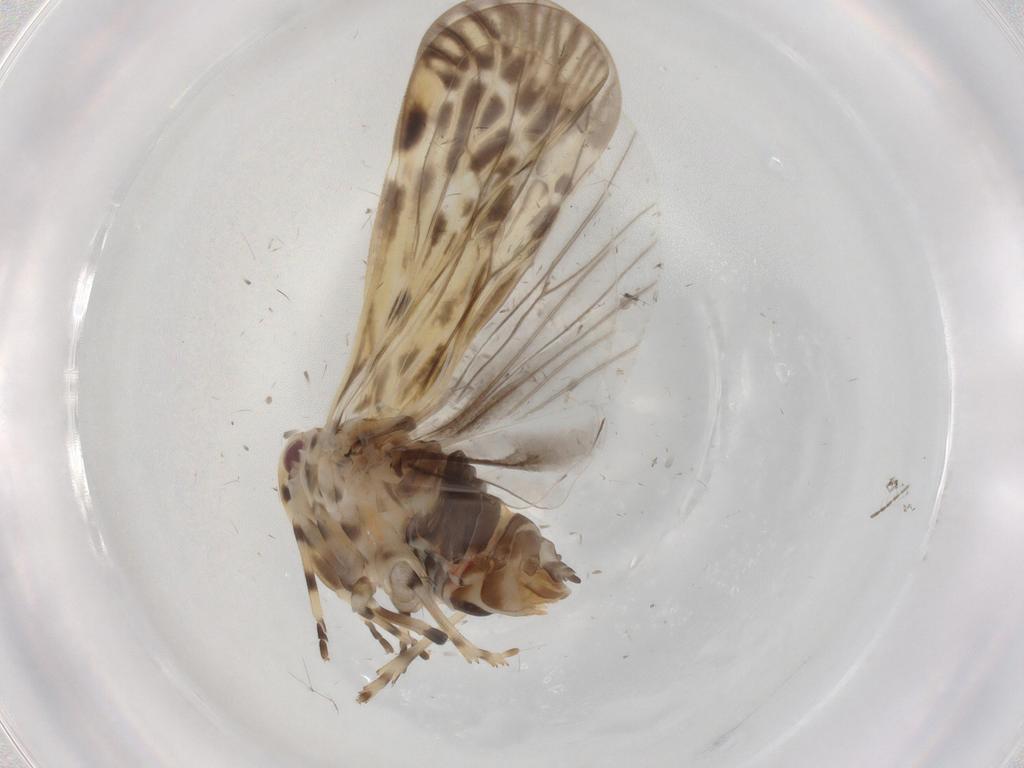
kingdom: Animalia
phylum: Arthropoda
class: Insecta
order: Hemiptera
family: Derbidae
